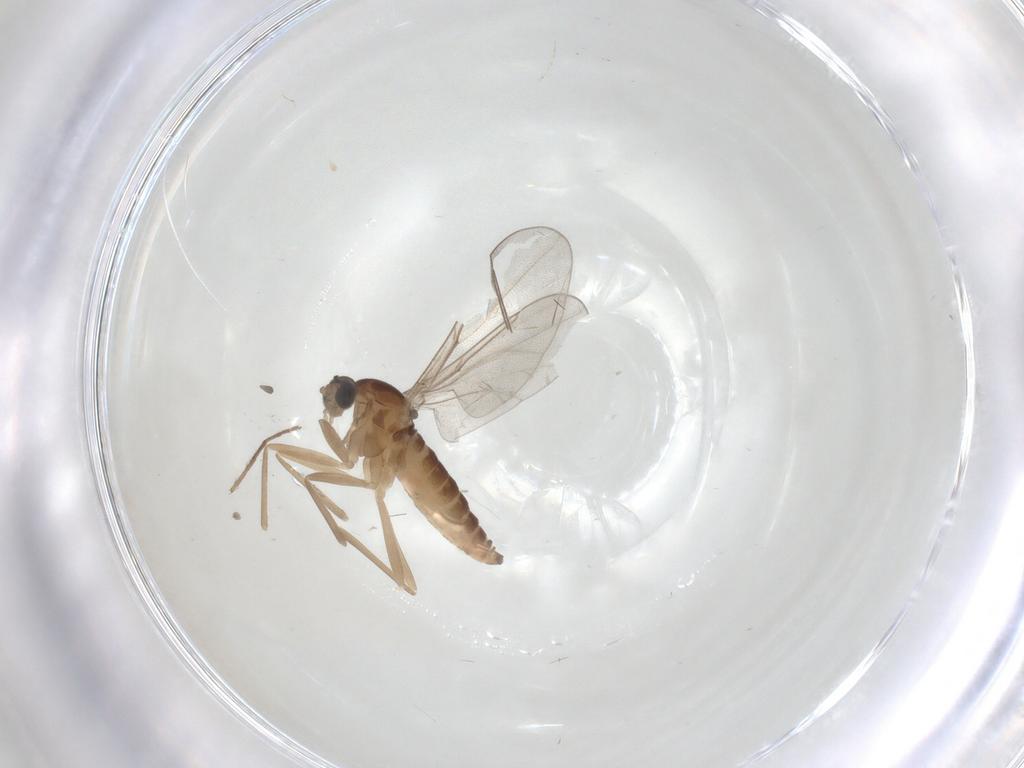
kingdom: Animalia
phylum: Arthropoda
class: Insecta
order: Diptera
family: Cecidomyiidae
